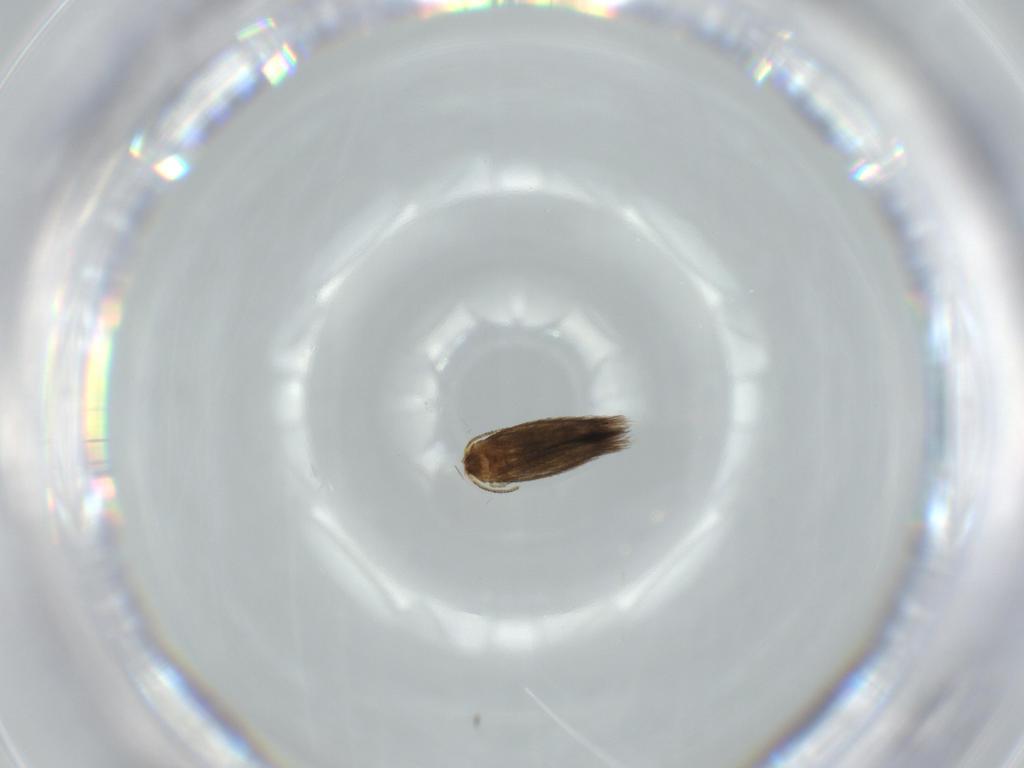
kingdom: Animalia
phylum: Arthropoda
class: Insecta
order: Lepidoptera
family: Nepticulidae
